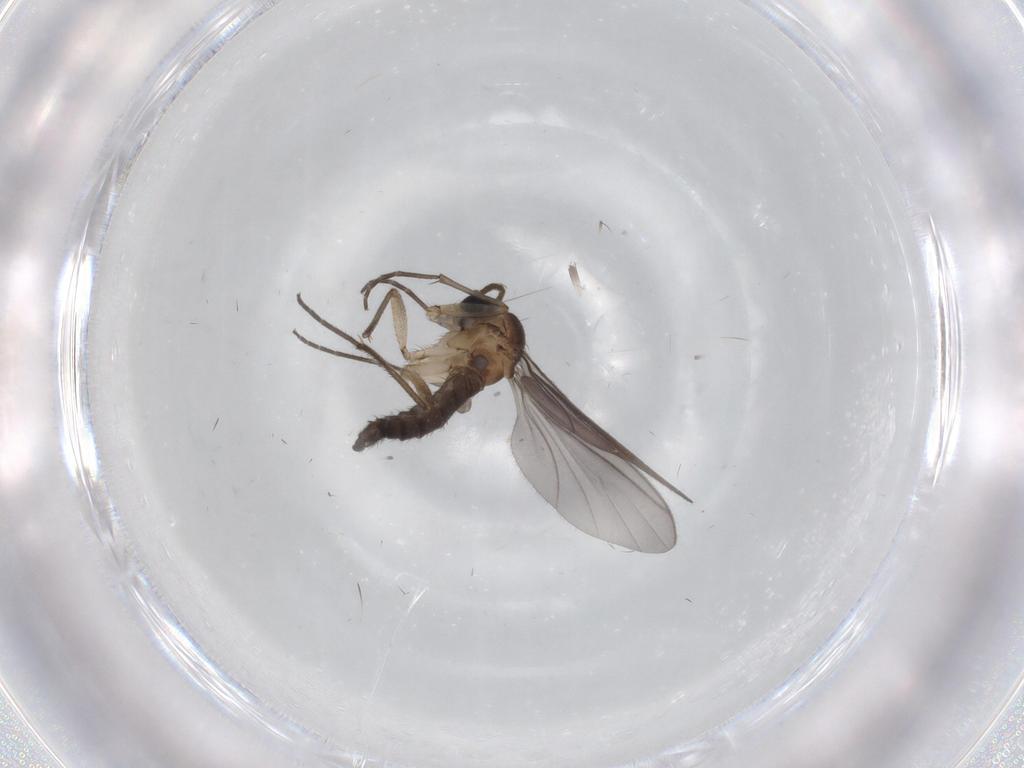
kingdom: Animalia
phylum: Arthropoda
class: Insecta
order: Diptera
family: Sciaridae
